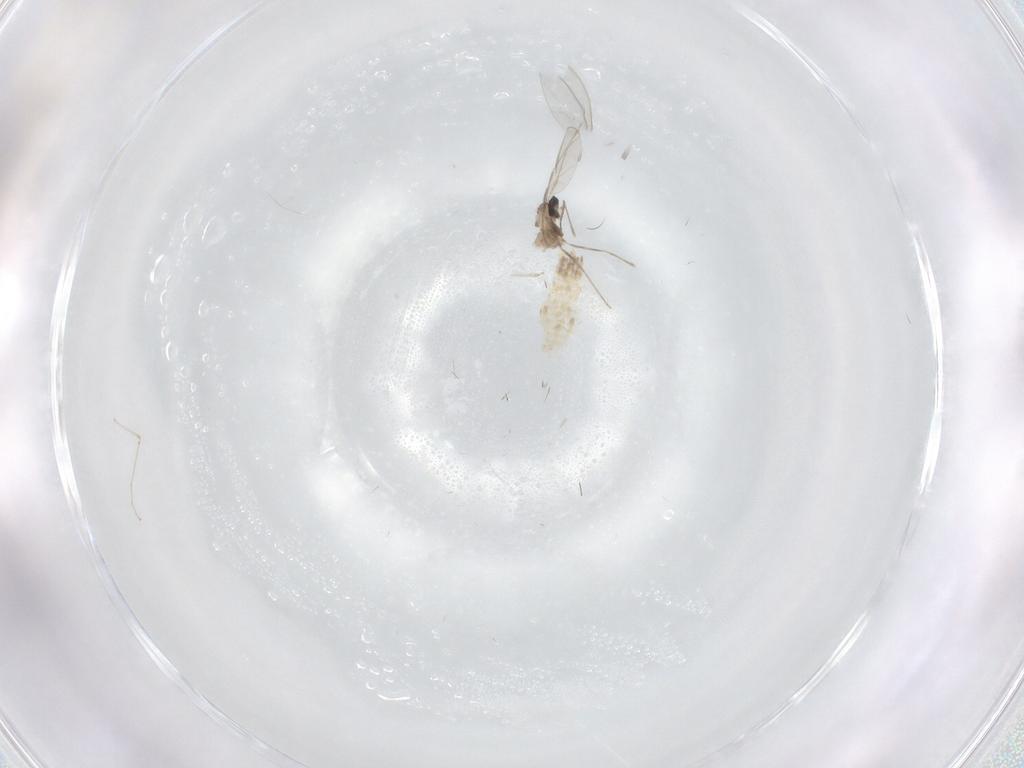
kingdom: Animalia
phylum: Arthropoda
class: Insecta
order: Diptera
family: Cecidomyiidae
